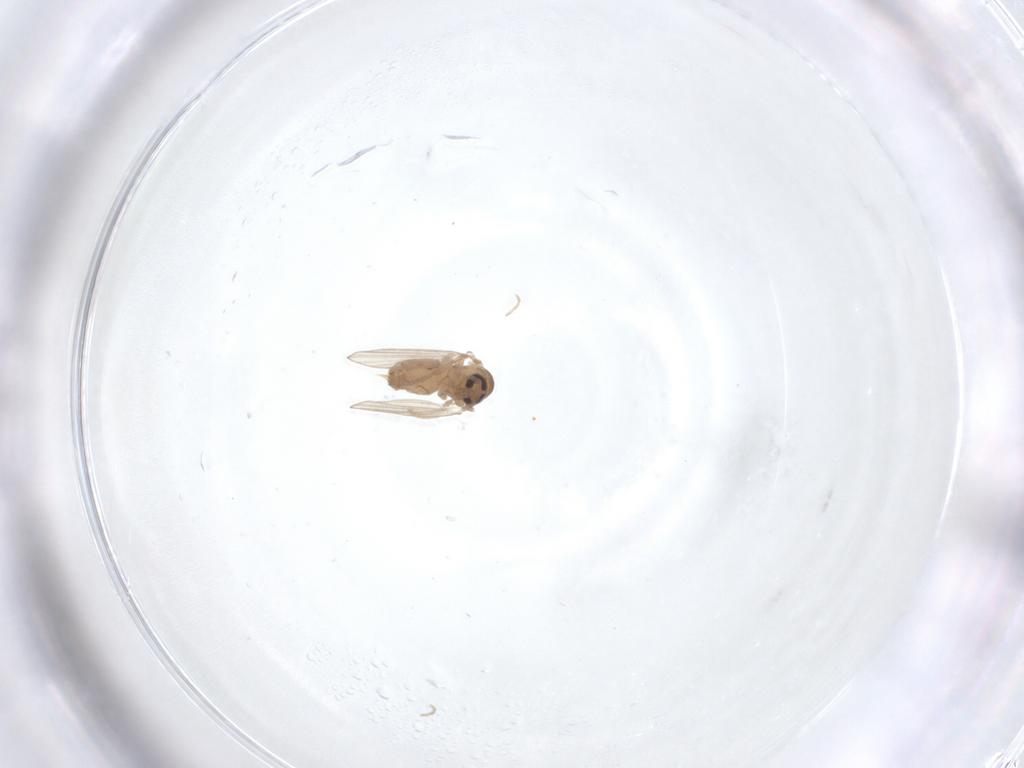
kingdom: Animalia
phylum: Arthropoda
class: Insecta
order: Diptera
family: Psychodidae
